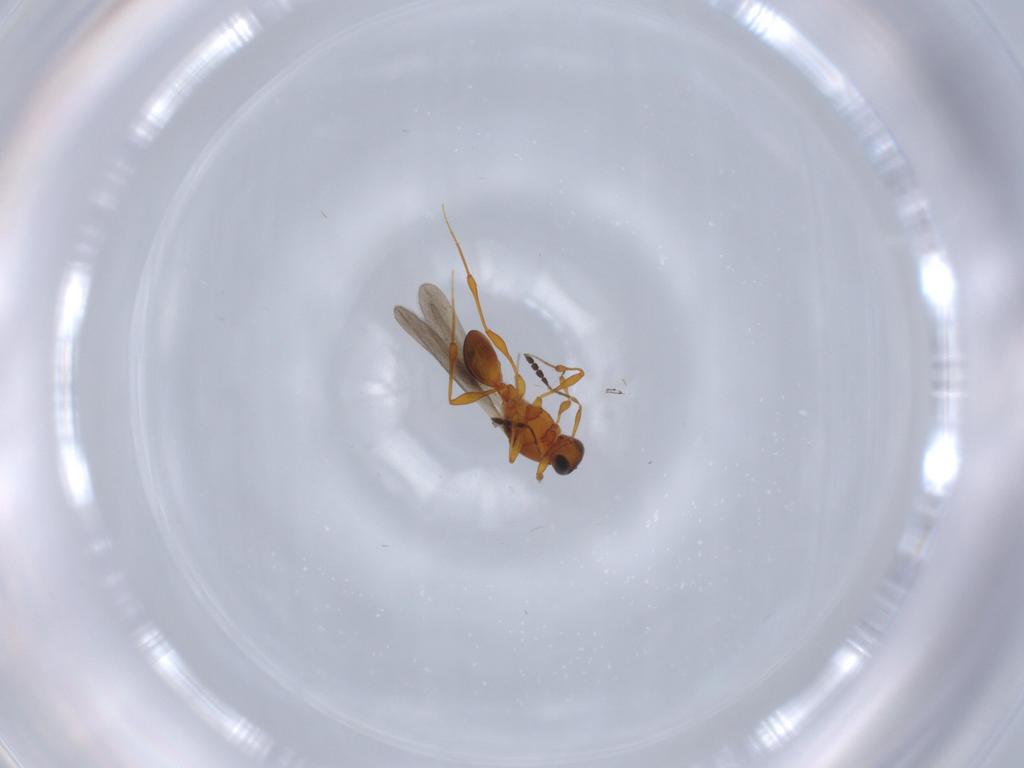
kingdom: Animalia
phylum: Arthropoda
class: Insecta
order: Hymenoptera
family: Platygastridae
